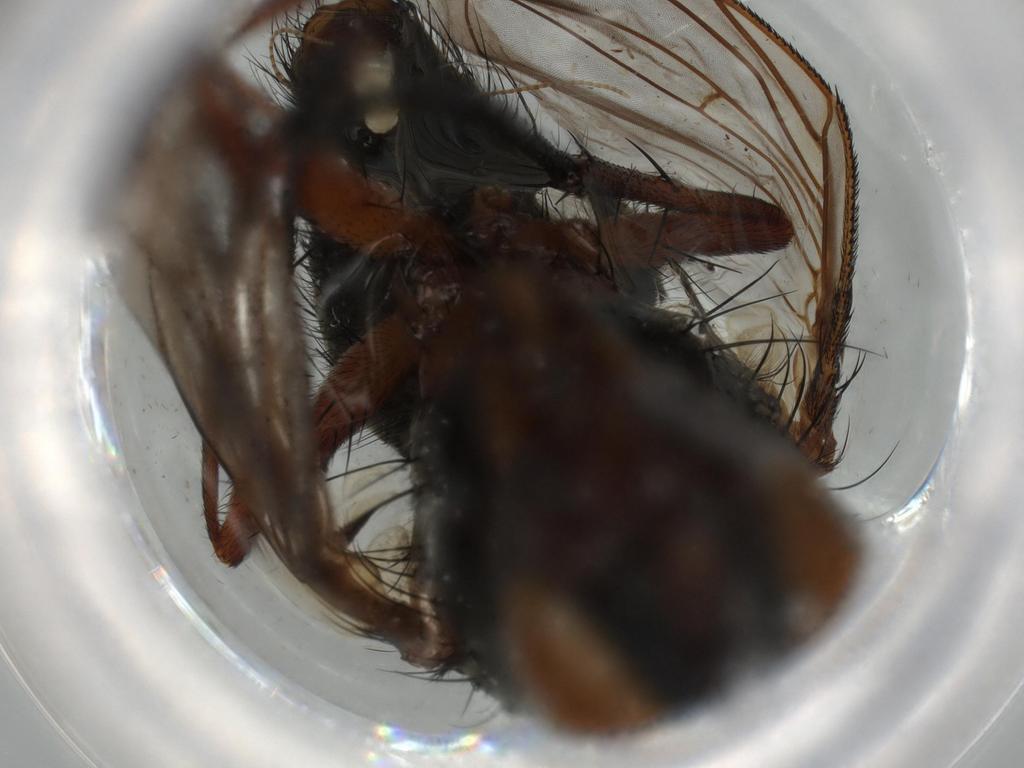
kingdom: Animalia
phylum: Arthropoda
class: Insecta
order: Diptera
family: Tachinidae
